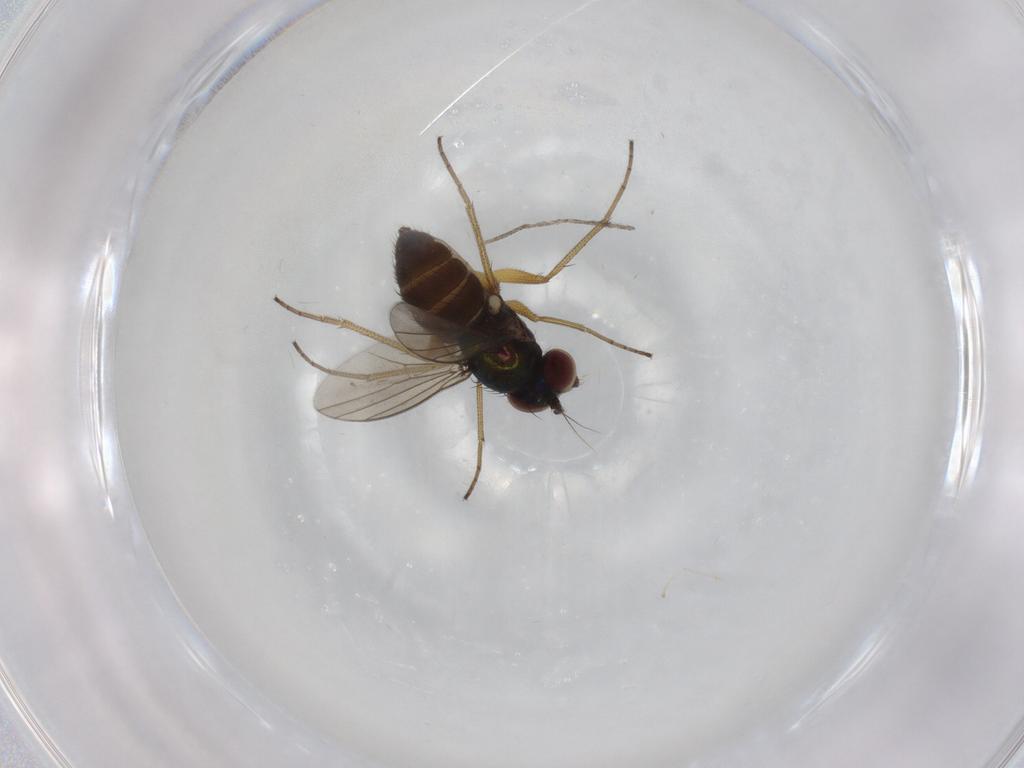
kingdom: Animalia
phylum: Arthropoda
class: Insecta
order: Diptera
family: Dolichopodidae
